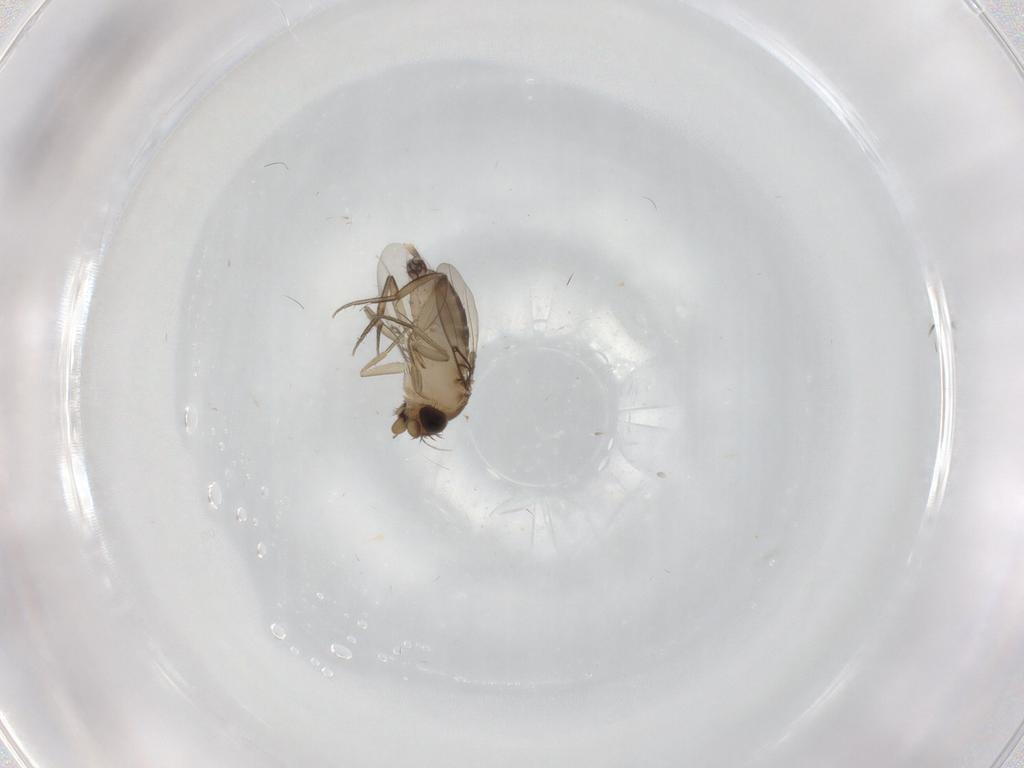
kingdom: Animalia
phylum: Arthropoda
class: Insecta
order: Diptera
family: Phoridae
